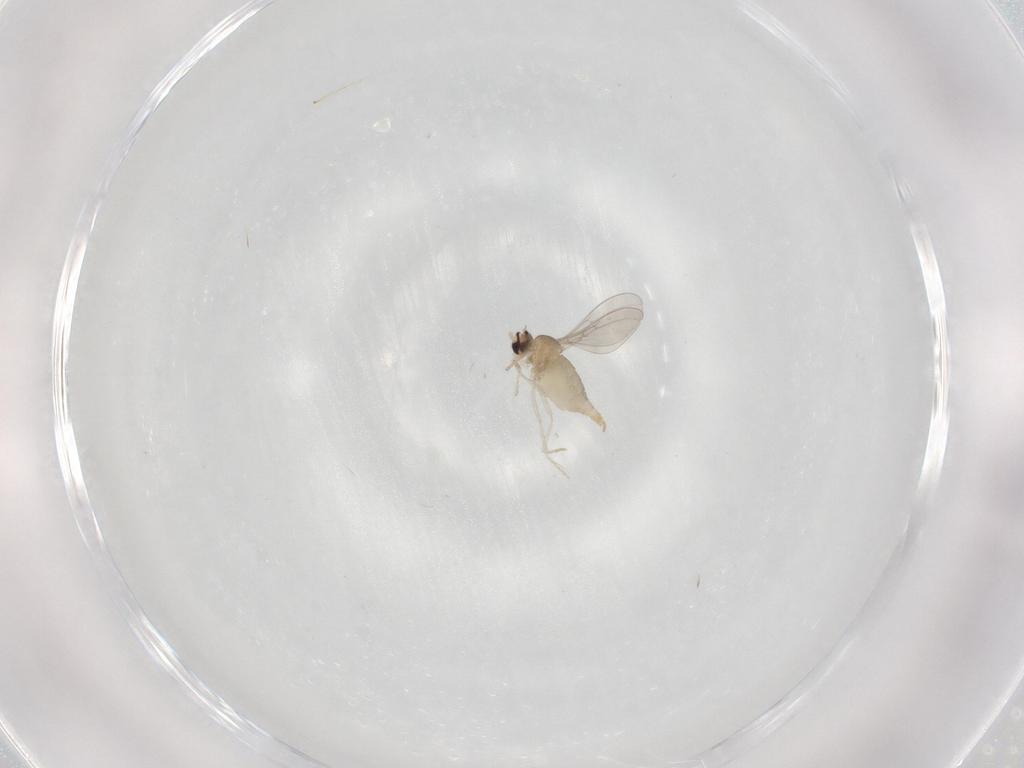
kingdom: Animalia
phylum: Arthropoda
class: Insecta
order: Diptera
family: Cecidomyiidae
